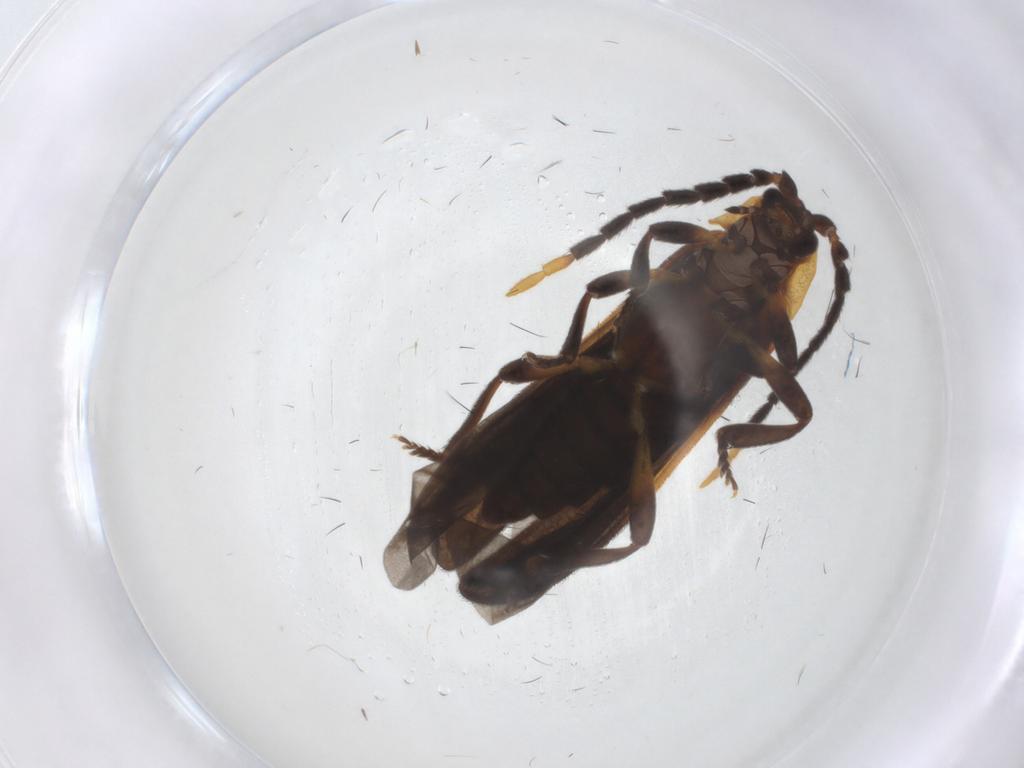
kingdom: Animalia
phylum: Arthropoda
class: Insecta
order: Coleoptera
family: Lycidae
